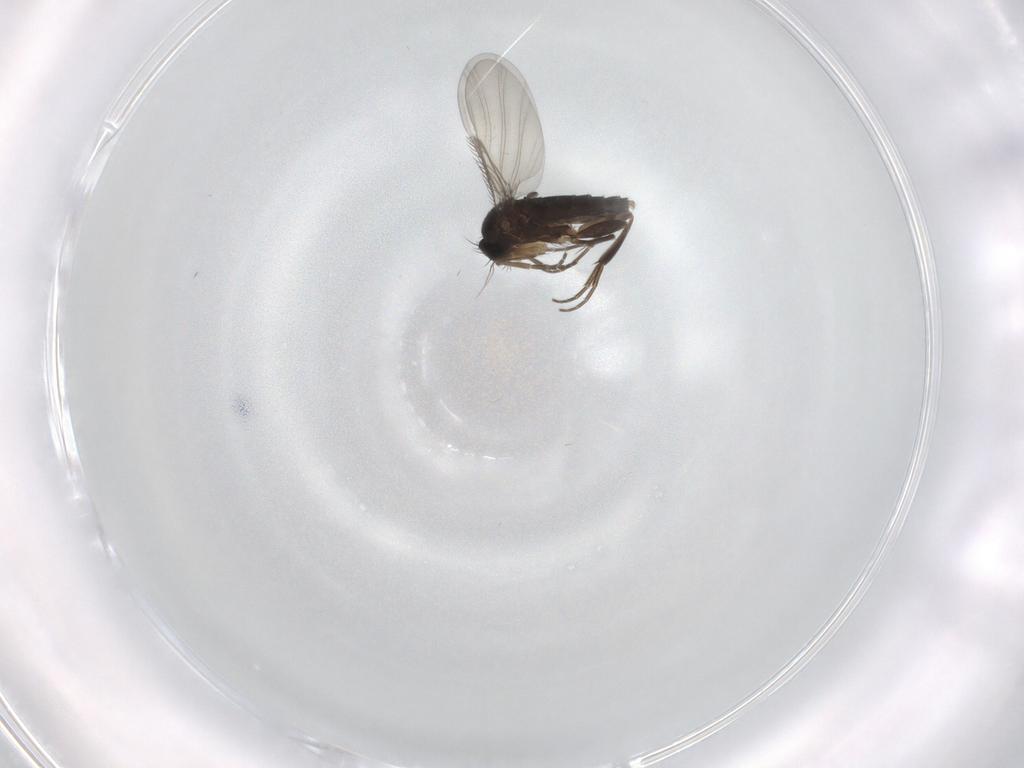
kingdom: Animalia
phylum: Arthropoda
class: Insecta
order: Diptera
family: Phoridae
